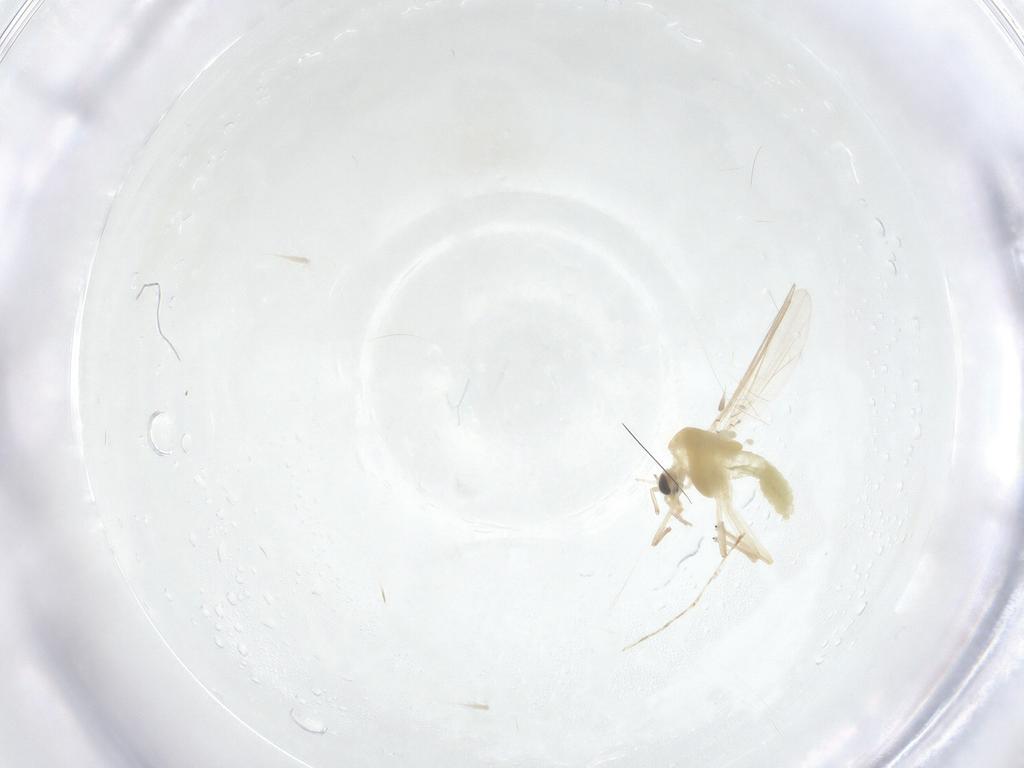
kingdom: Animalia
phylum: Arthropoda
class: Insecta
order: Diptera
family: Chironomidae
